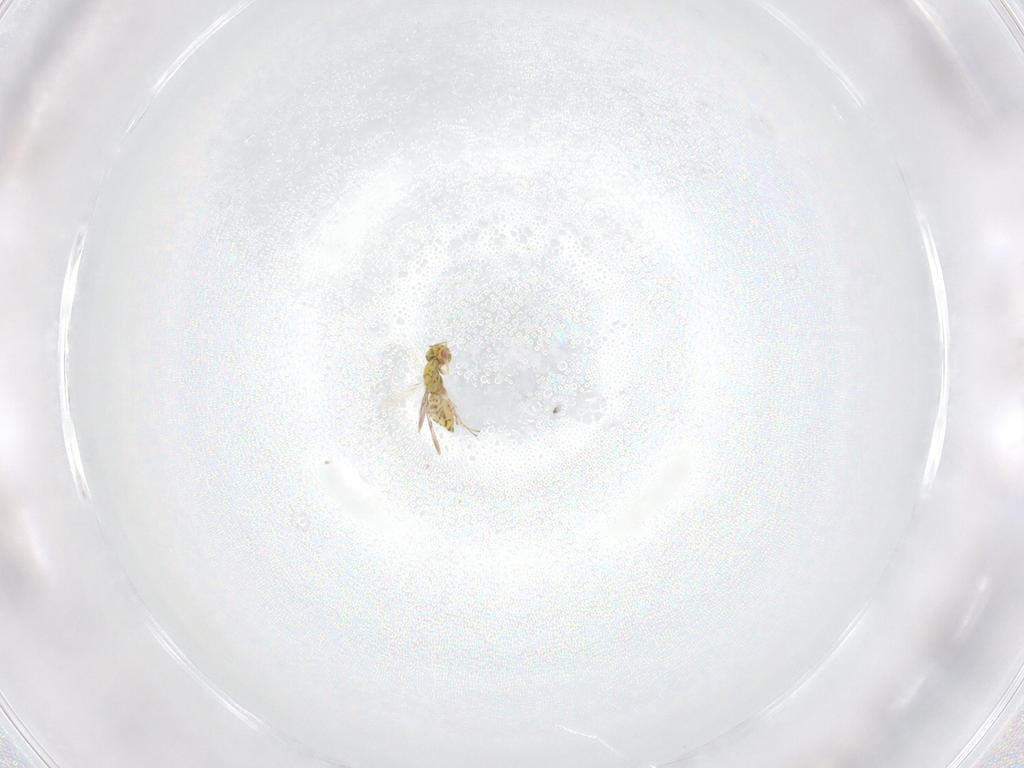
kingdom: Animalia
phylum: Arthropoda
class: Insecta
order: Hymenoptera
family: Eulophidae
